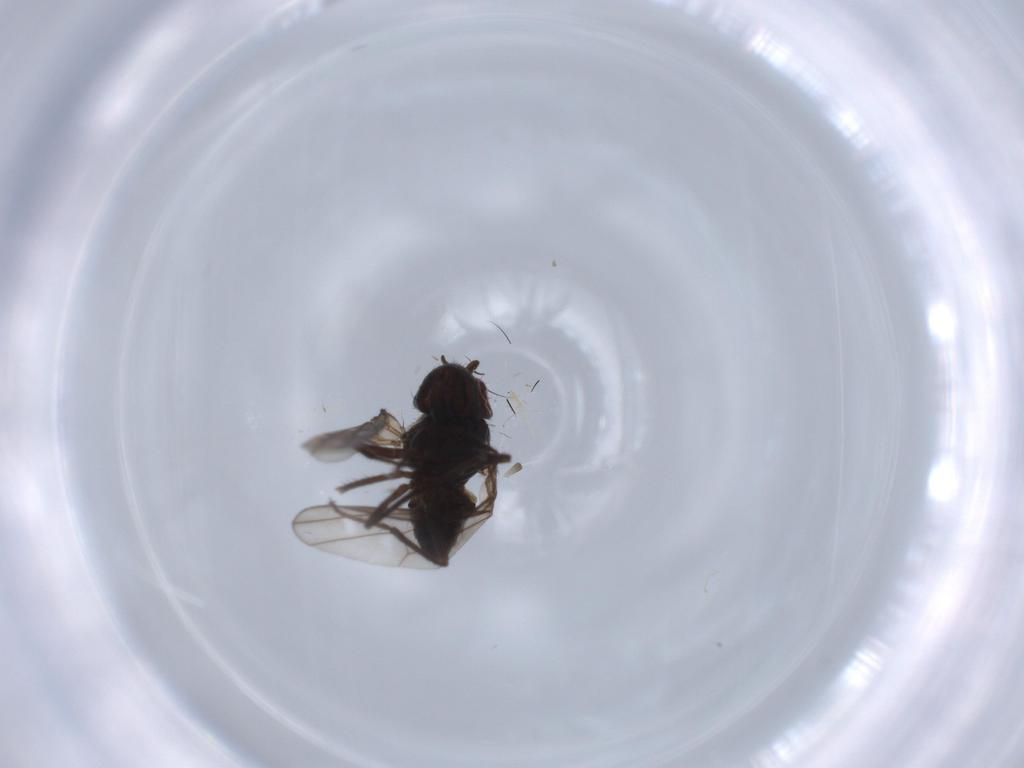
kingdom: Animalia
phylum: Arthropoda
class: Insecta
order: Diptera
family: Ephydridae
